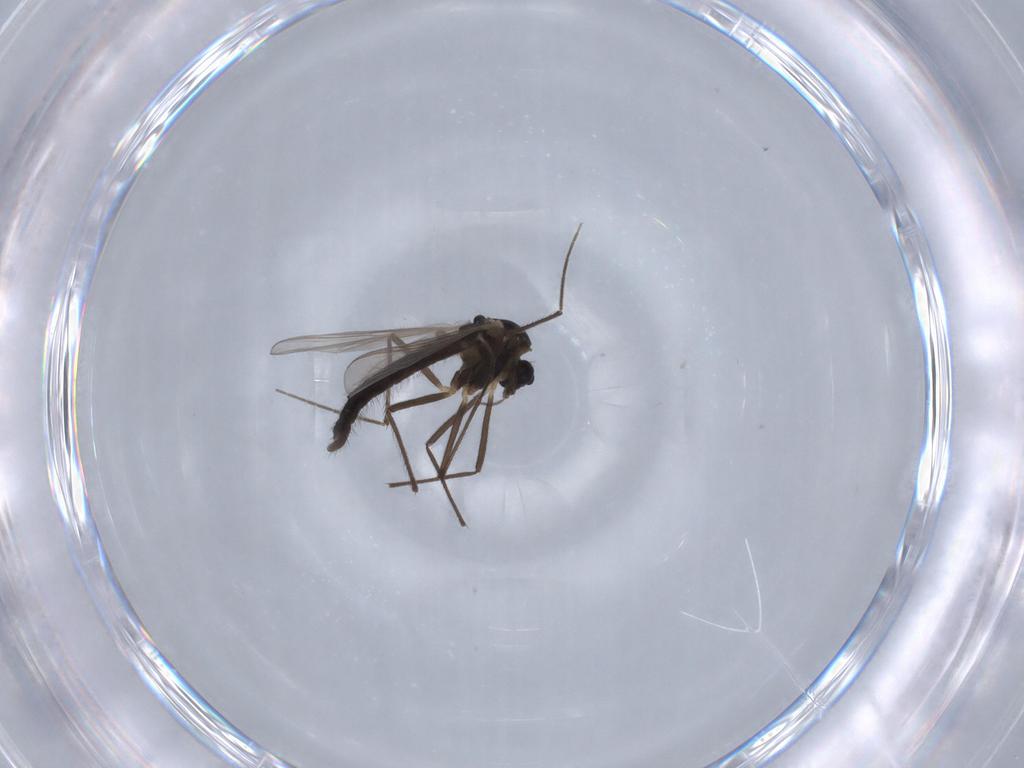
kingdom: Animalia
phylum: Arthropoda
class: Insecta
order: Diptera
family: Chironomidae
